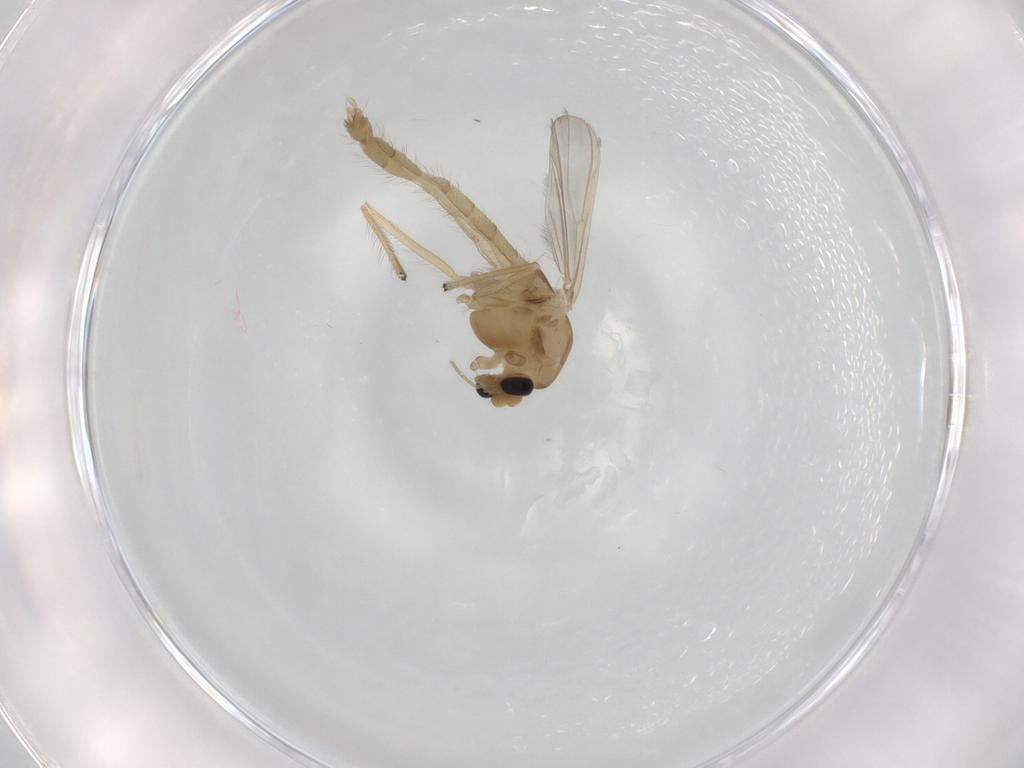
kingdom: Animalia
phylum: Arthropoda
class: Insecta
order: Diptera
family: Chironomidae
